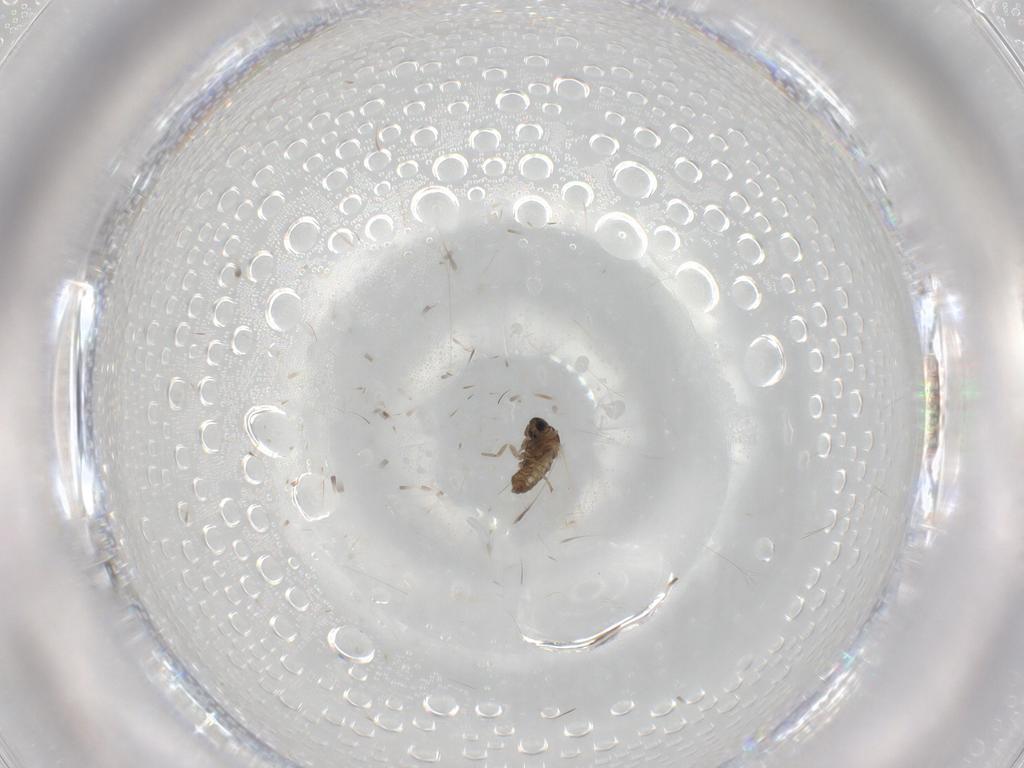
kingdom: Animalia
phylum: Arthropoda
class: Insecta
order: Diptera
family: Cecidomyiidae
